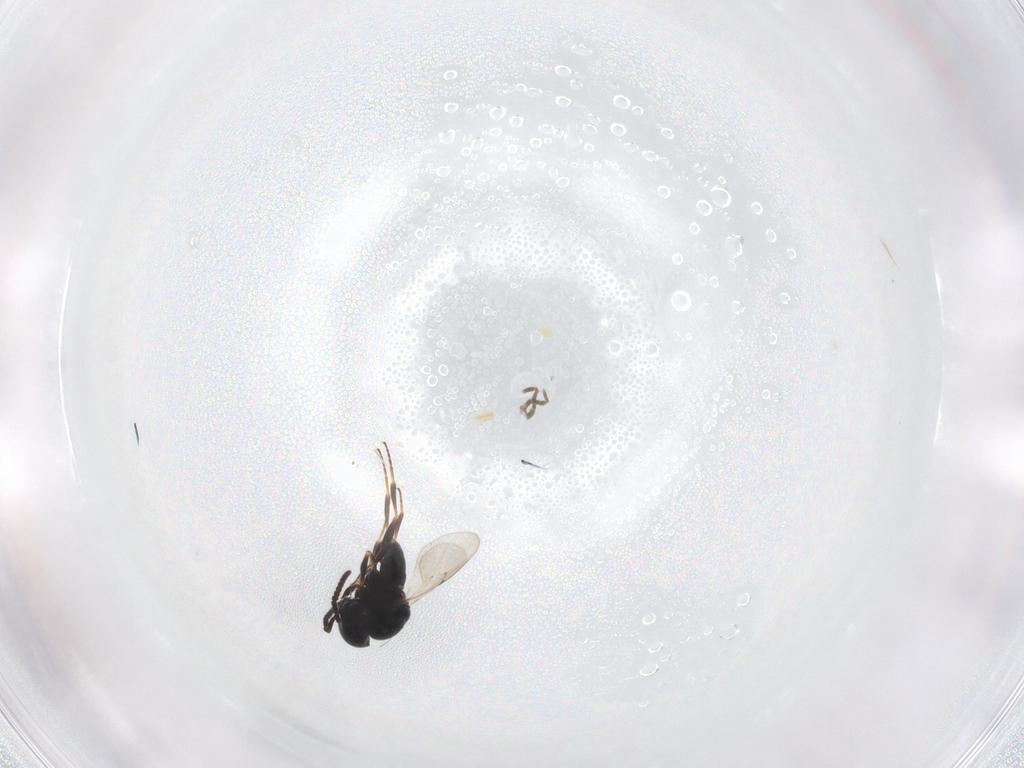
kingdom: Animalia
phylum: Arthropoda
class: Insecta
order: Hymenoptera
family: Scelionidae
